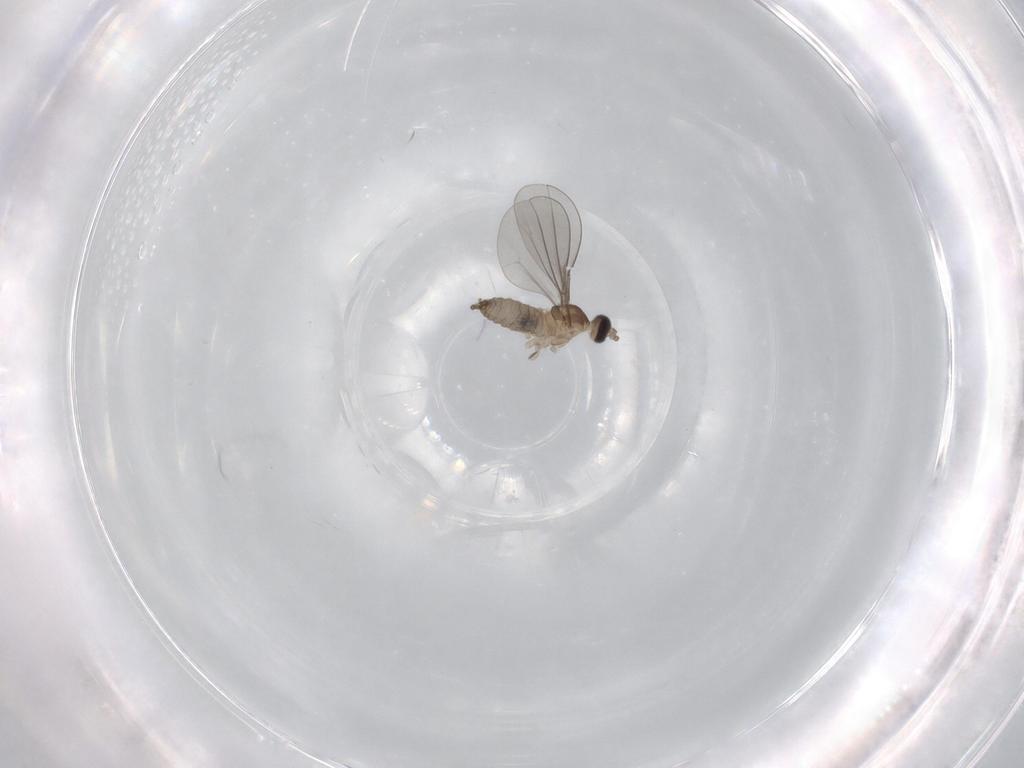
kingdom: Animalia
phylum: Arthropoda
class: Insecta
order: Diptera
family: Cecidomyiidae
